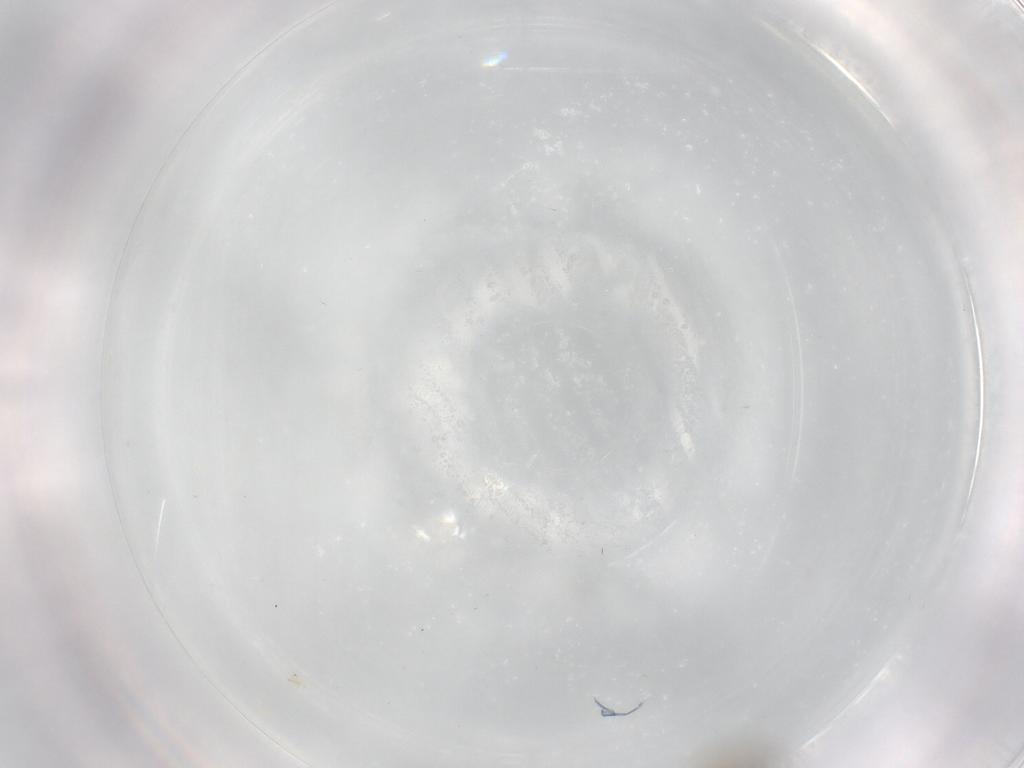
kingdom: Animalia
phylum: Arthropoda
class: Insecta
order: Diptera
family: Psychodidae
